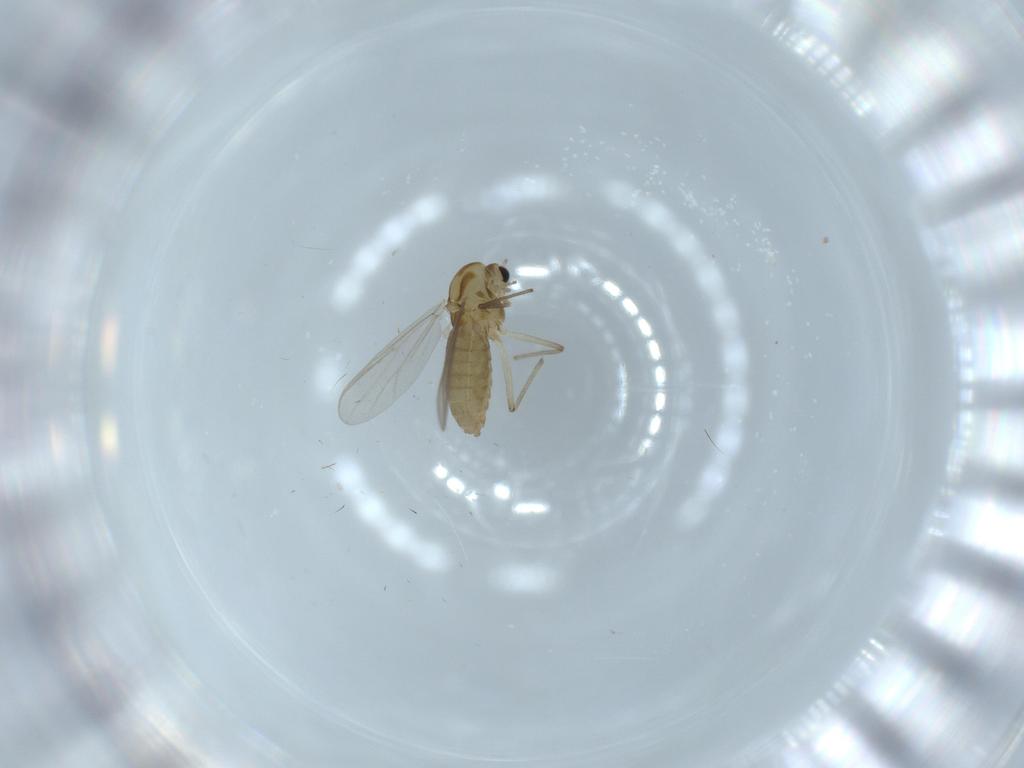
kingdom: Animalia
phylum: Arthropoda
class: Insecta
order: Diptera
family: Chironomidae
